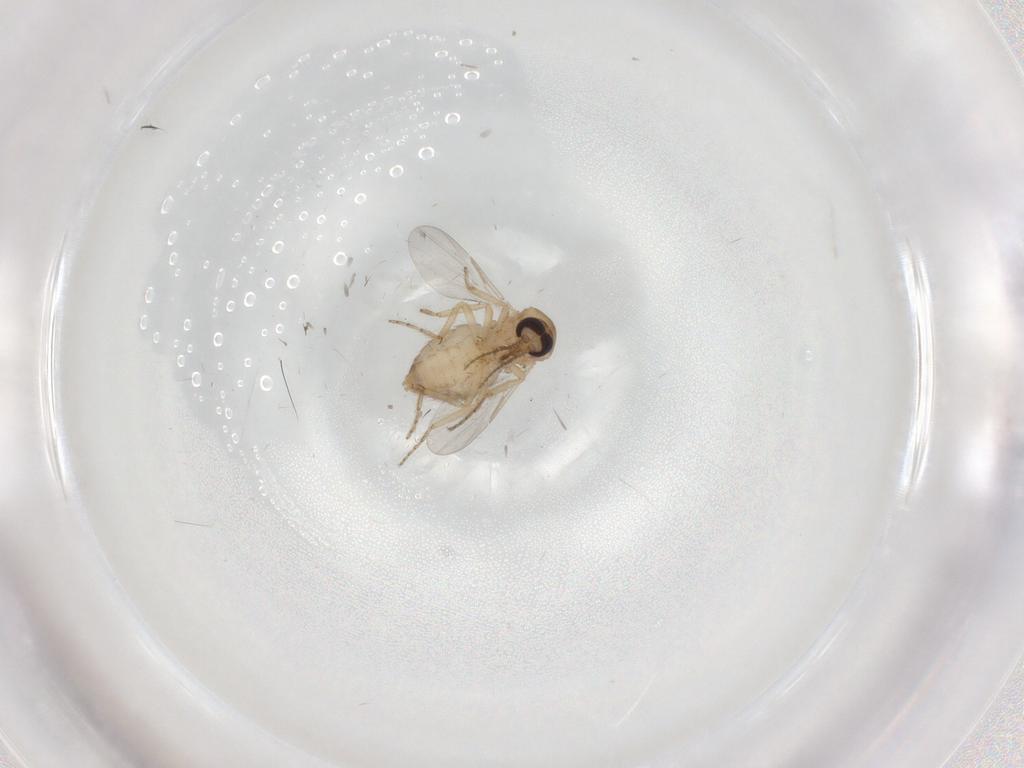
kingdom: Animalia
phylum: Arthropoda
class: Insecta
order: Diptera
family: Ceratopogonidae
